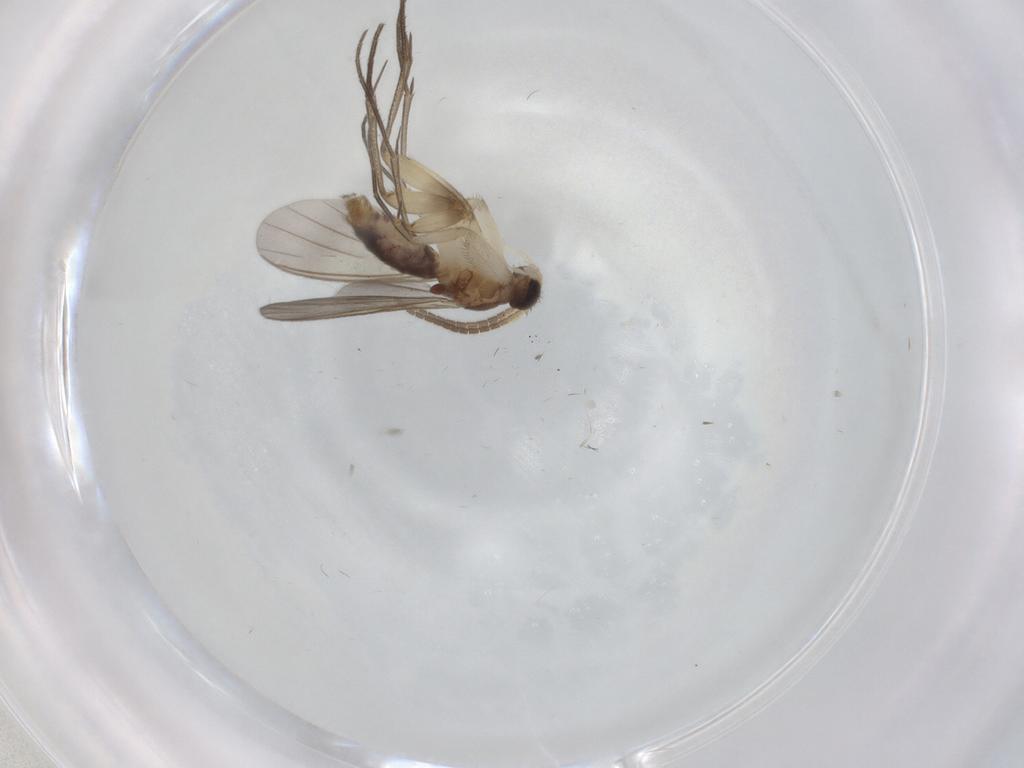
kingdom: Animalia
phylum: Arthropoda
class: Insecta
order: Diptera
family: Mycetophilidae
